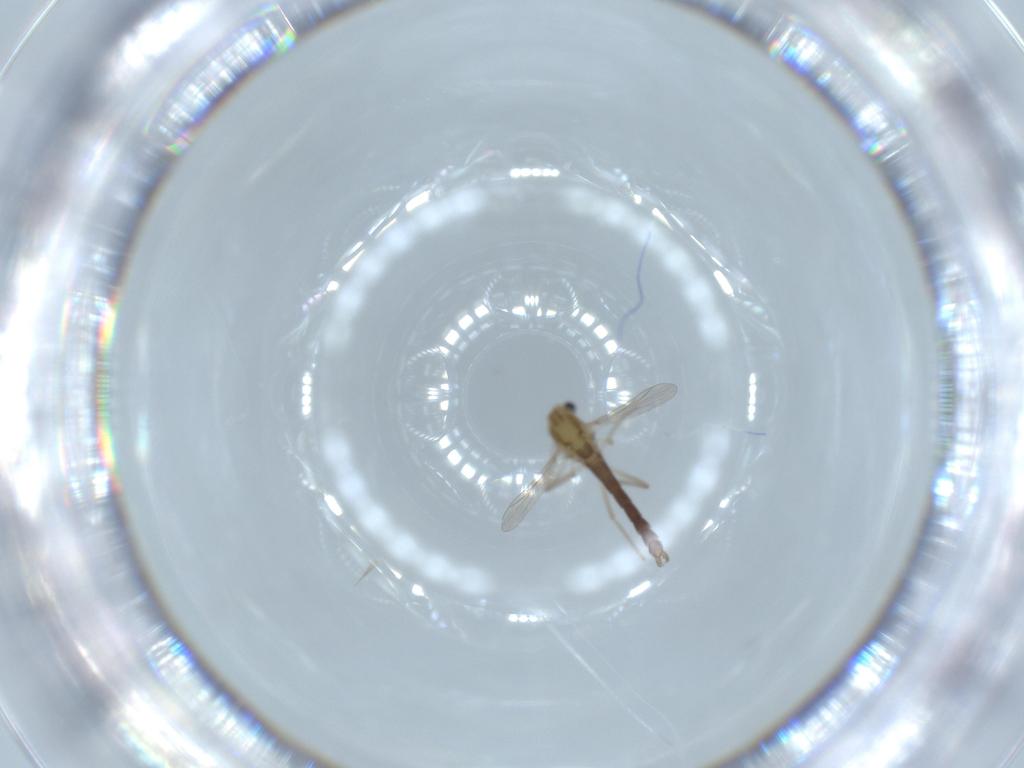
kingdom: Animalia
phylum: Arthropoda
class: Insecta
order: Diptera
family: Chironomidae
